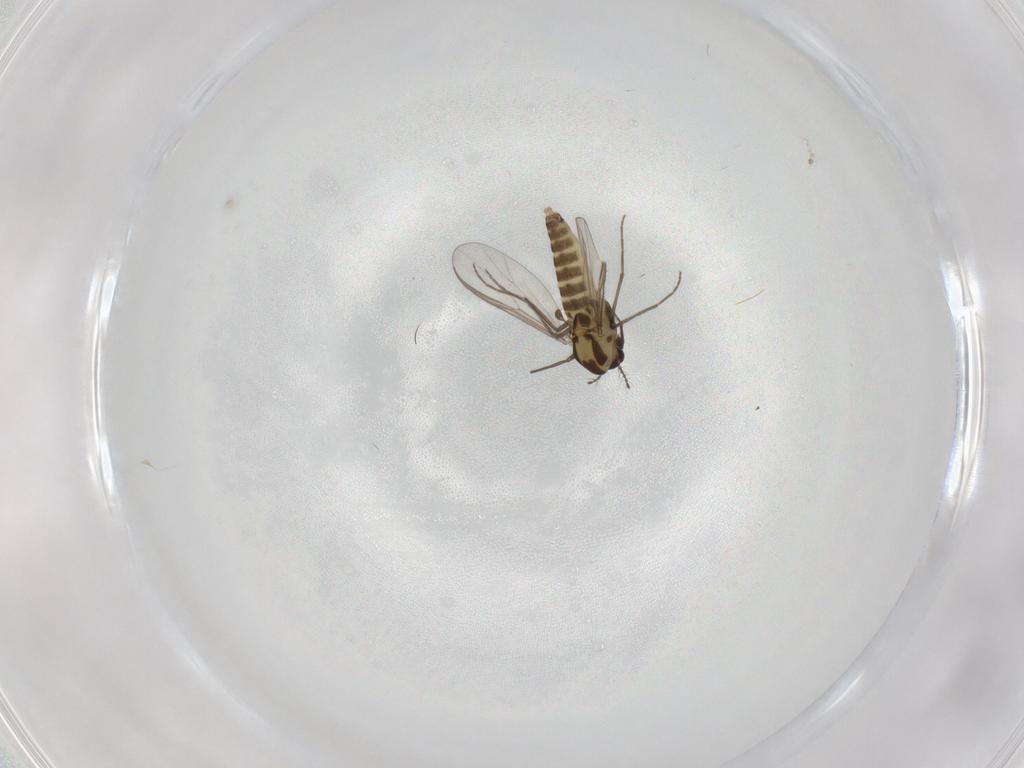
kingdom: Animalia
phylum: Arthropoda
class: Insecta
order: Diptera
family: Chironomidae
